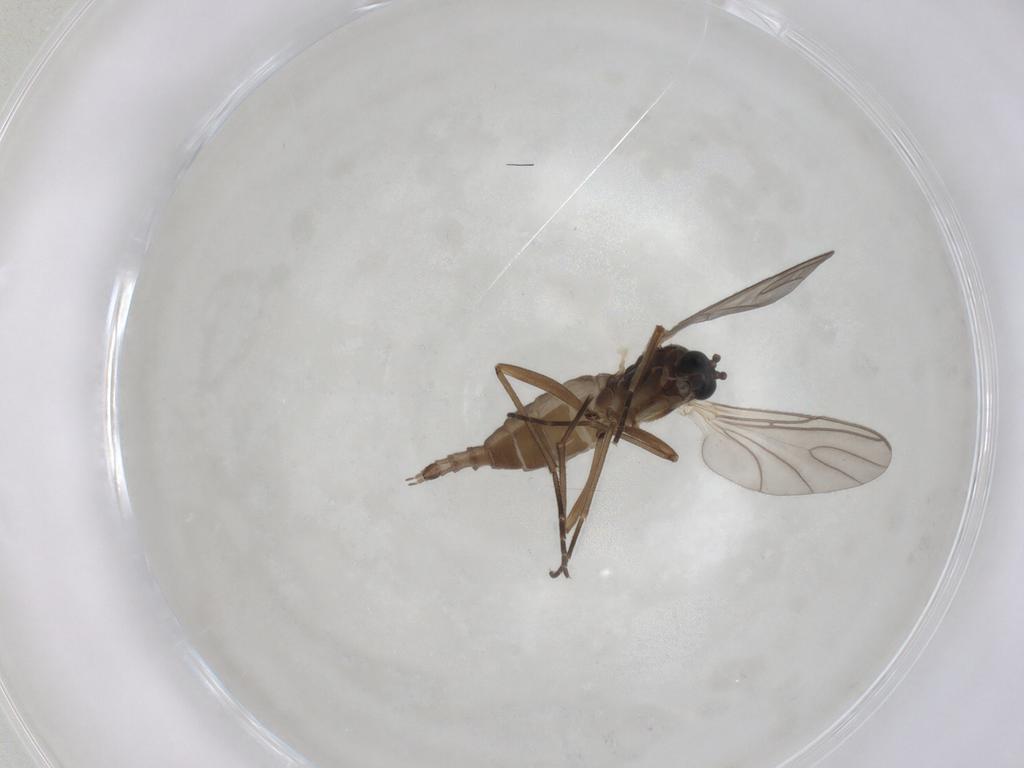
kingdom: Animalia
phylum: Arthropoda
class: Insecta
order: Diptera
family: Sciaridae
